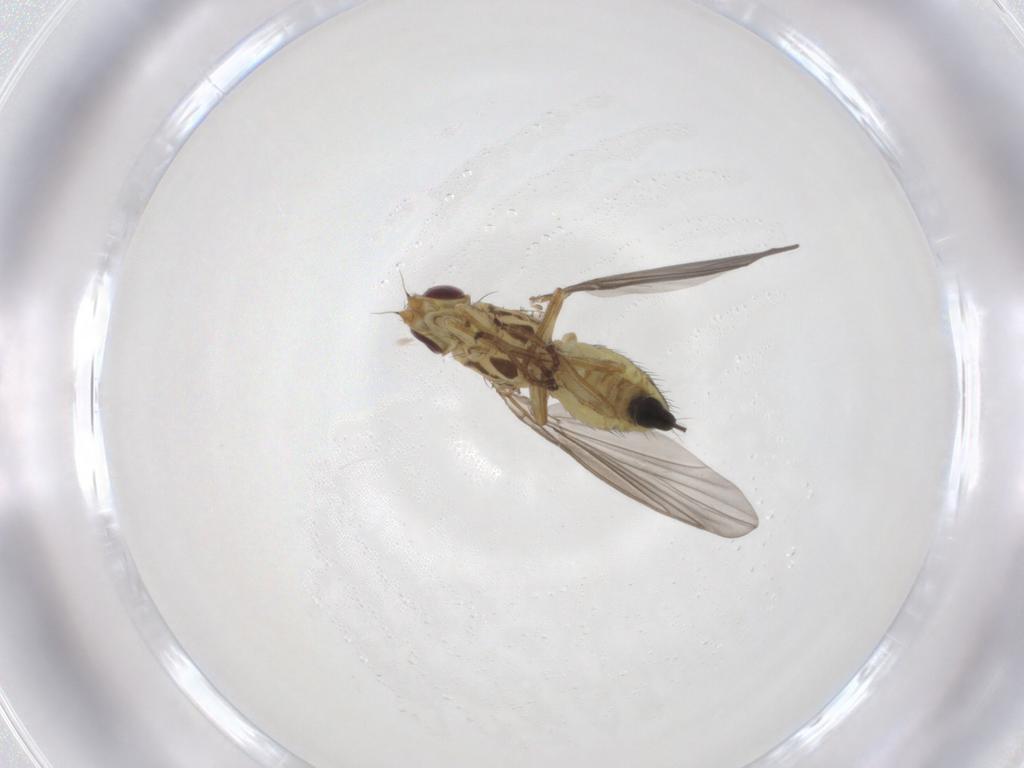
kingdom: Animalia
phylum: Arthropoda
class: Insecta
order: Diptera
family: Agromyzidae
